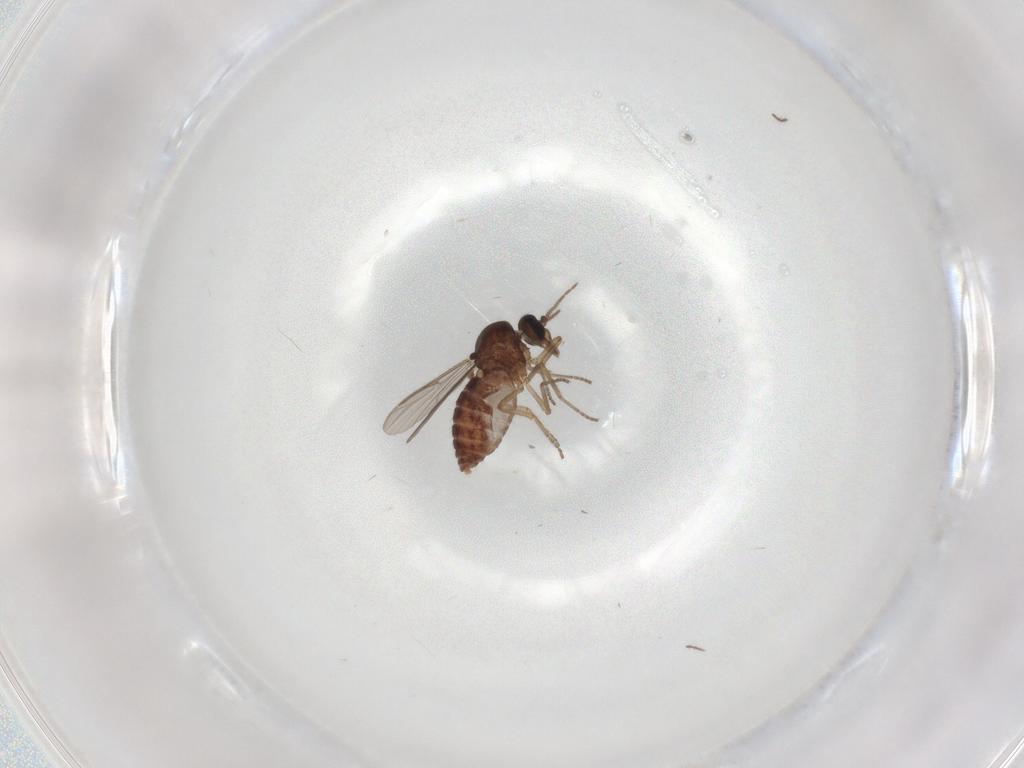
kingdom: Animalia
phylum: Arthropoda
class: Insecta
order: Diptera
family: Ceratopogonidae
